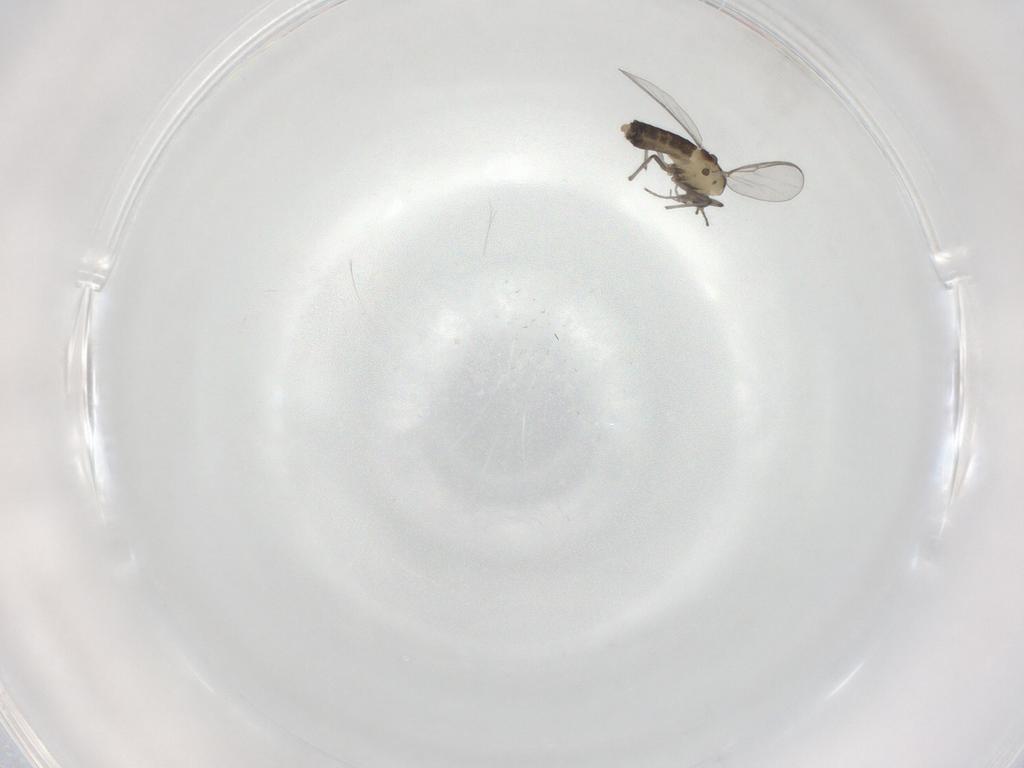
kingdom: Animalia
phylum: Arthropoda
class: Insecta
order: Diptera
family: Chironomidae
